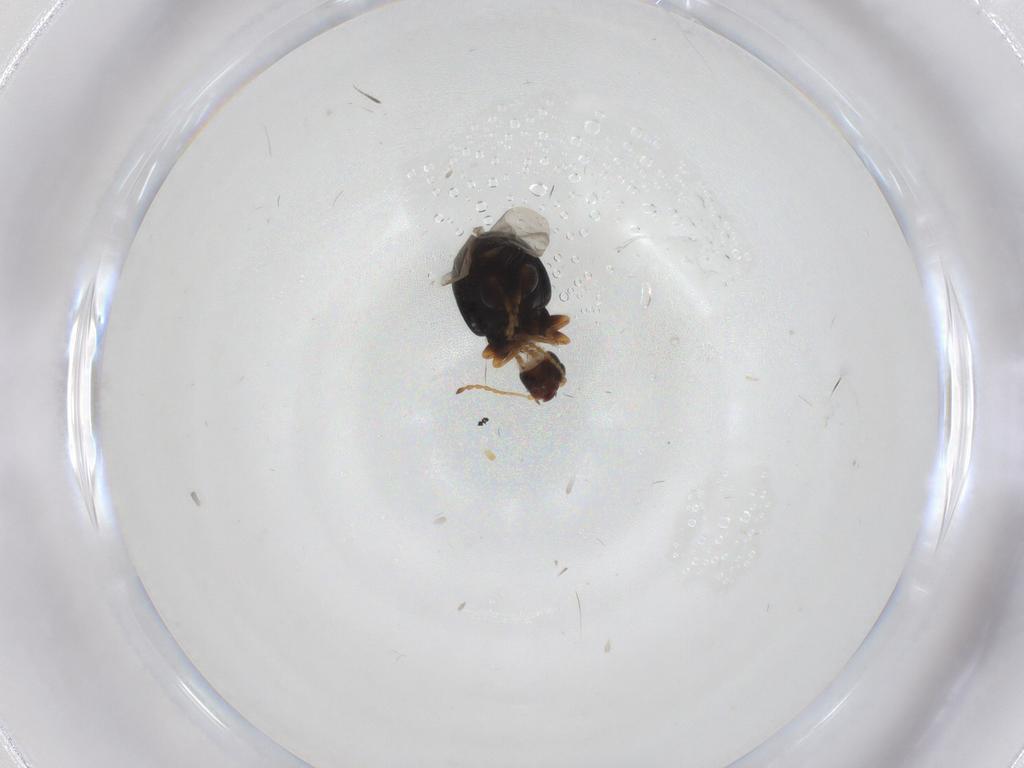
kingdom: Animalia
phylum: Arthropoda
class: Insecta
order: Coleoptera
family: Chrysomelidae
